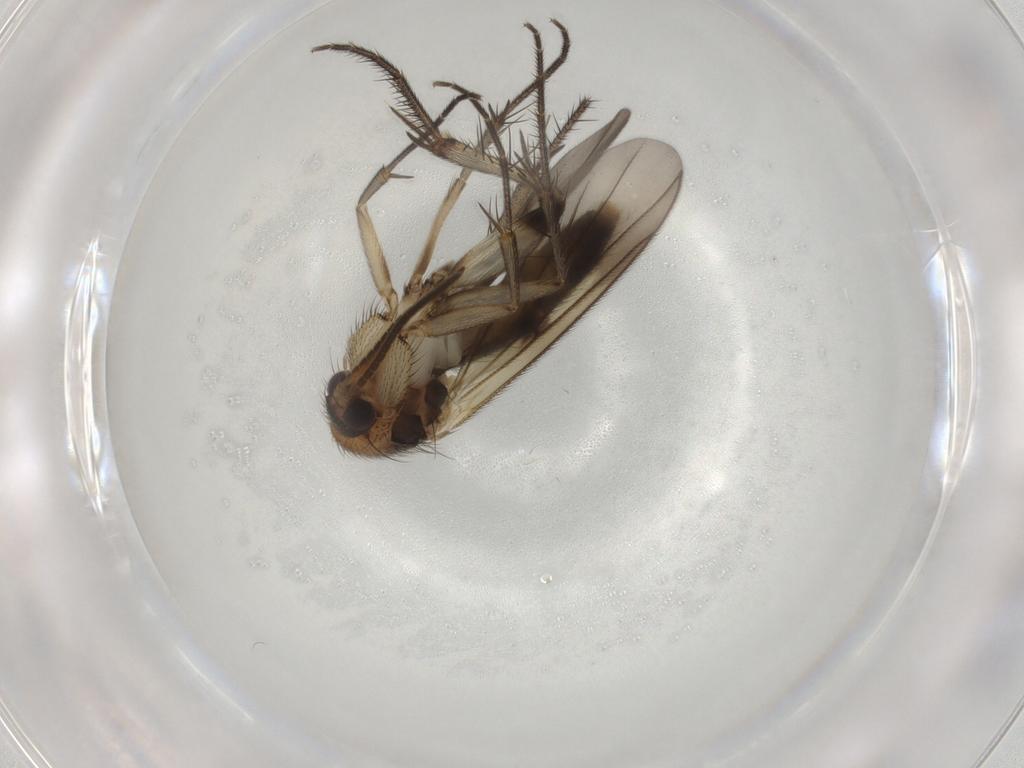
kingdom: Animalia
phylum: Arthropoda
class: Insecta
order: Diptera
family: Mycetophilidae
